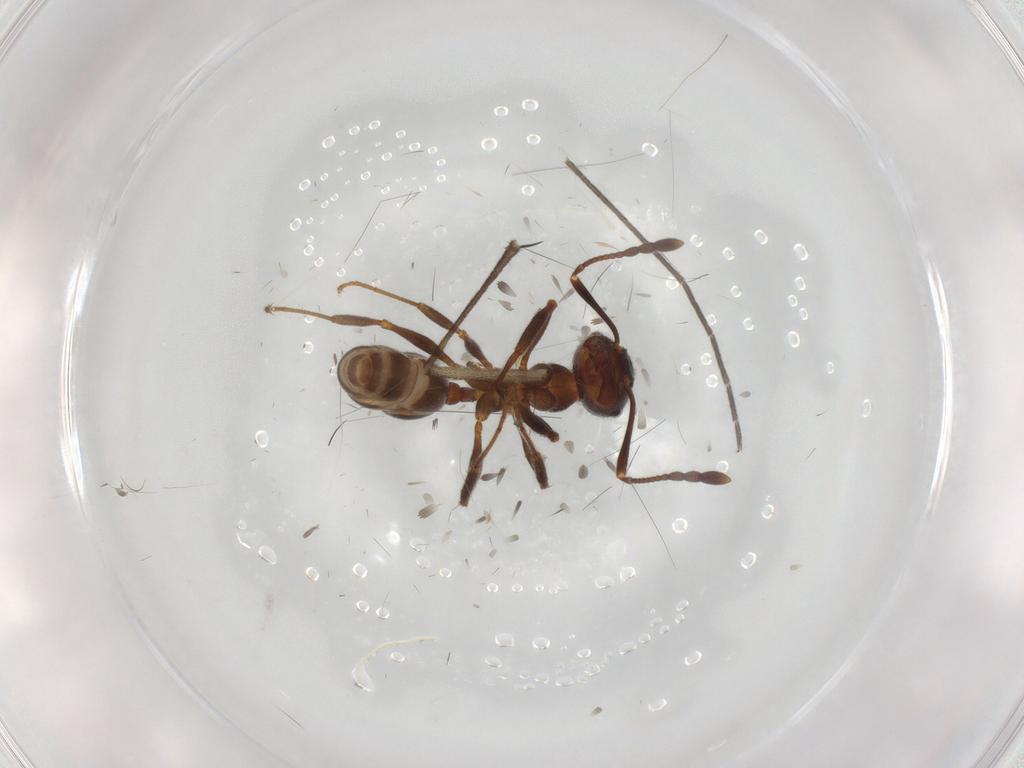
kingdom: Animalia
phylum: Arthropoda
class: Insecta
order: Hymenoptera
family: Formicidae
